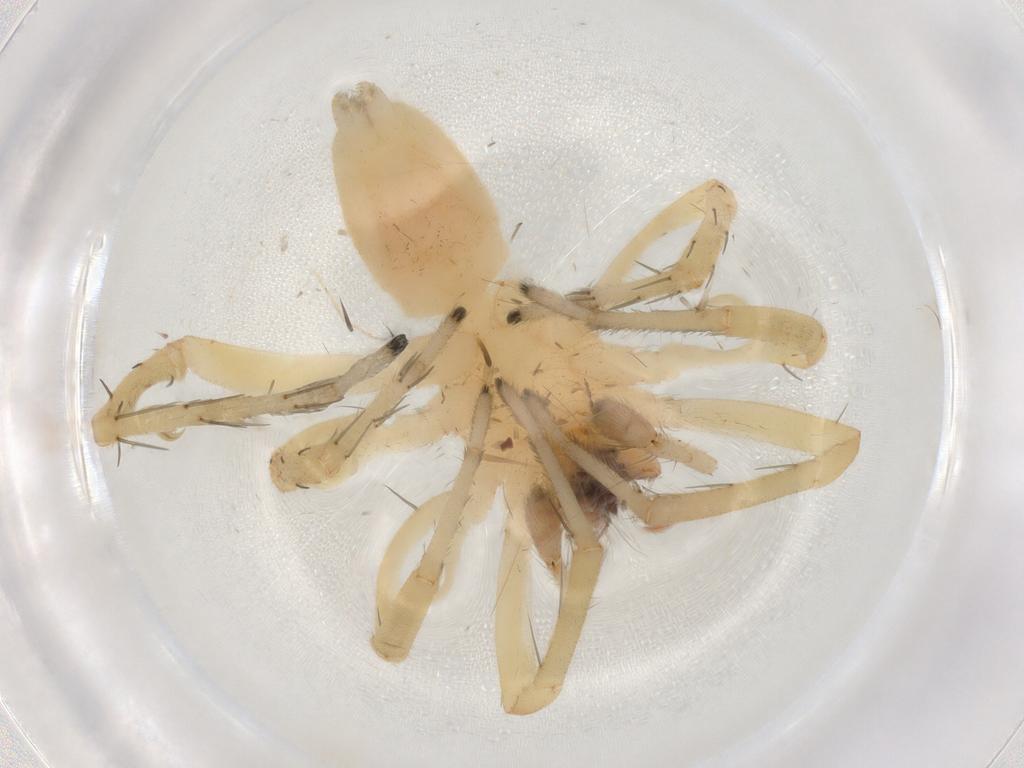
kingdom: Animalia
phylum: Arthropoda
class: Arachnida
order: Araneae
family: Clubionidae
